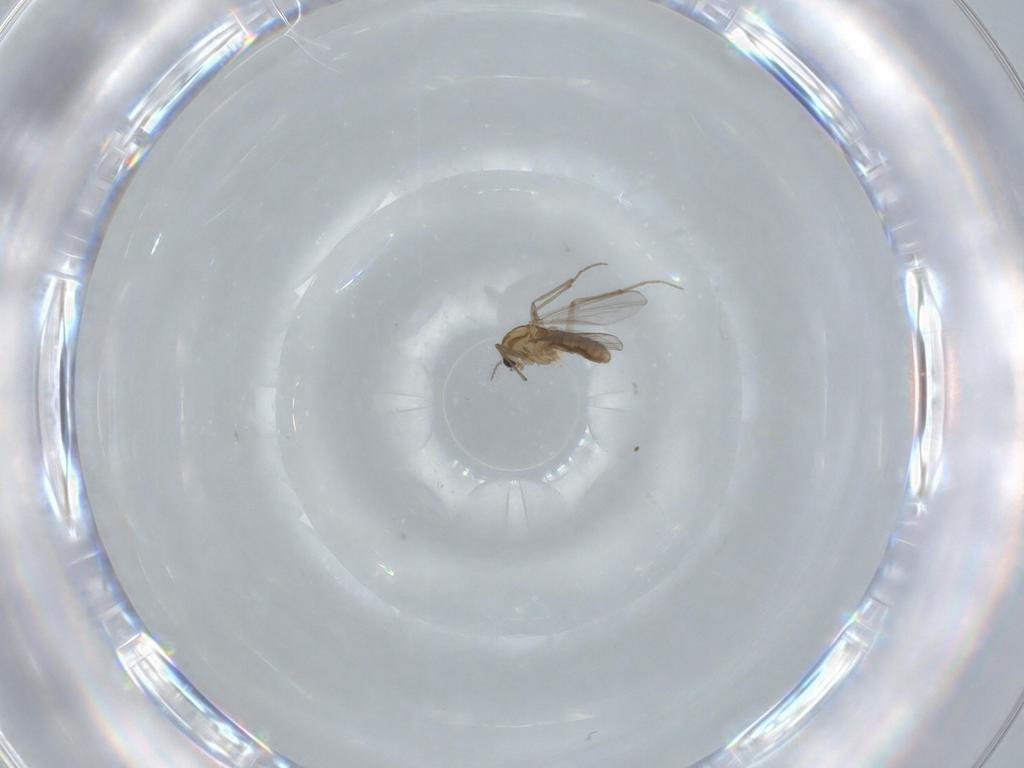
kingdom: Animalia
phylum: Arthropoda
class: Insecta
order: Diptera
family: Chironomidae
